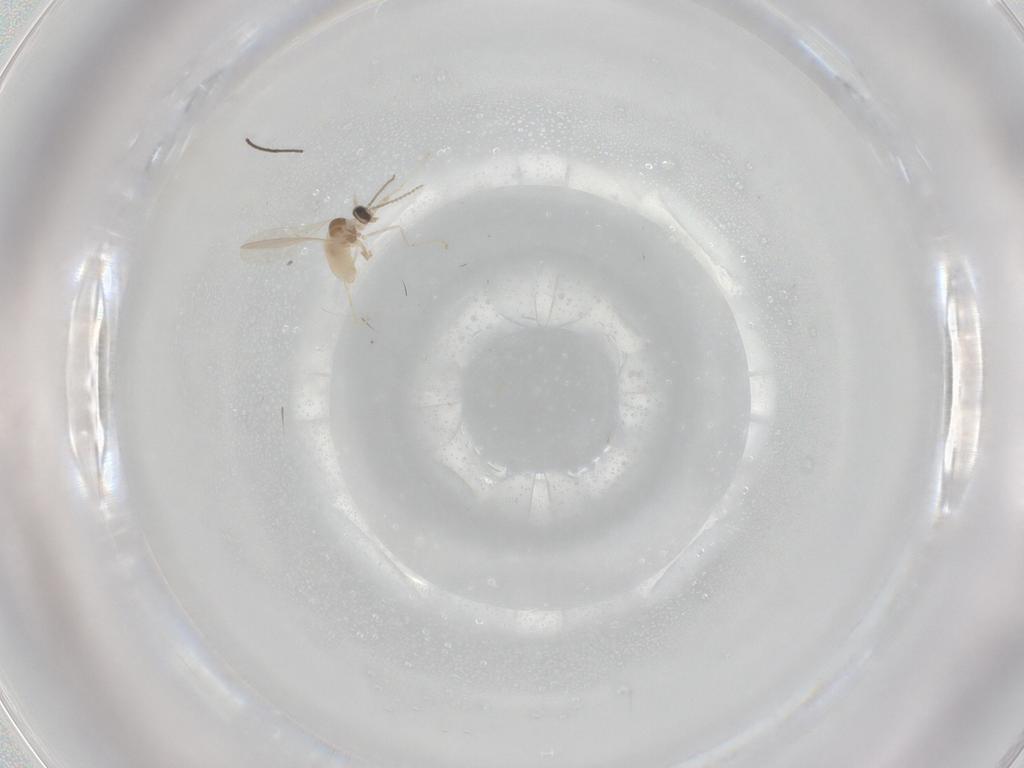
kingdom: Animalia
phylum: Arthropoda
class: Insecta
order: Diptera
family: Cecidomyiidae
